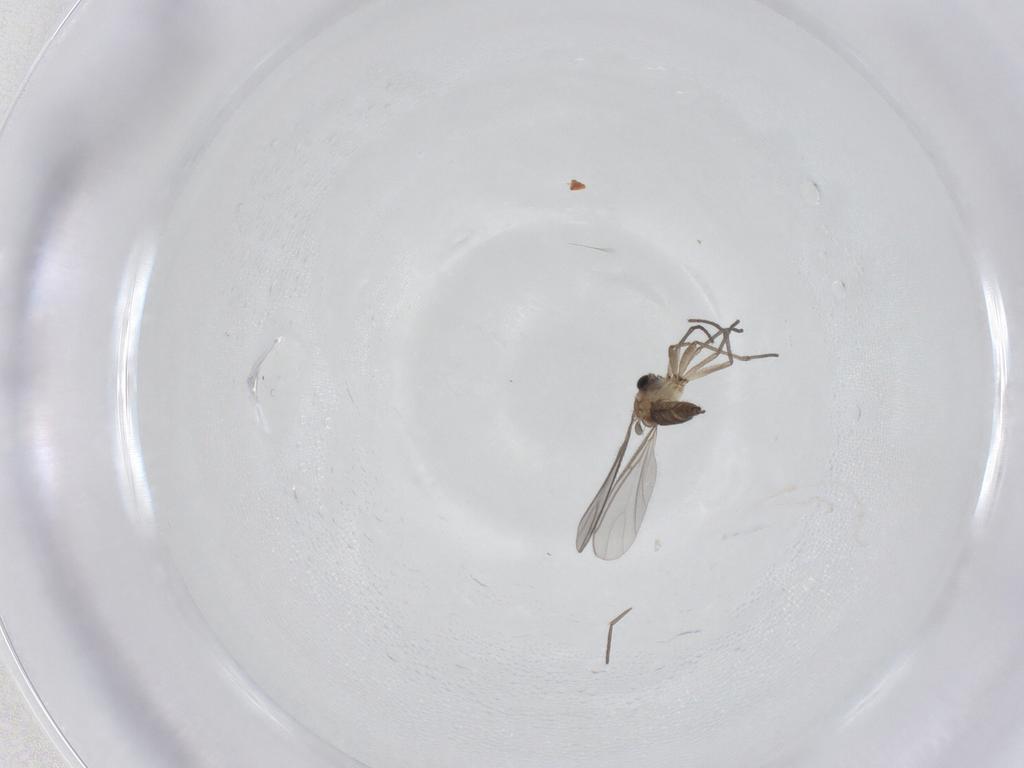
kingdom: Animalia
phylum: Arthropoda
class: Insecta
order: Diptera
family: Sciaridae
